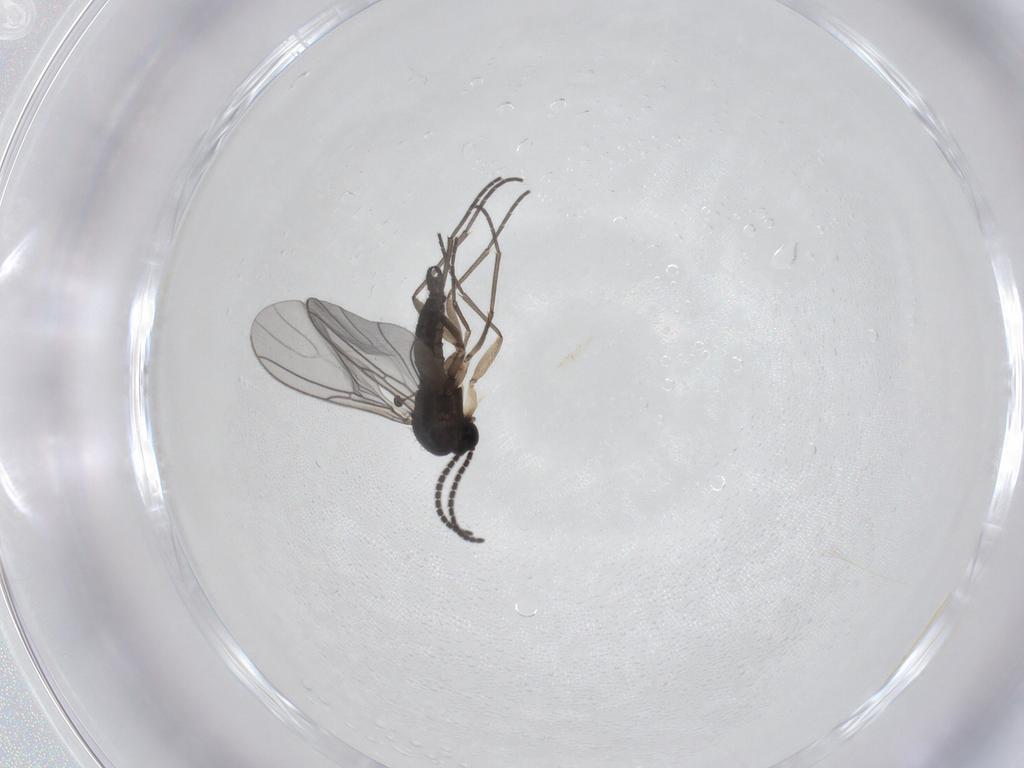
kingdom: Animalia
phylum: Arthropoda
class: Insecta
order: Diptera
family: Sciaridae
